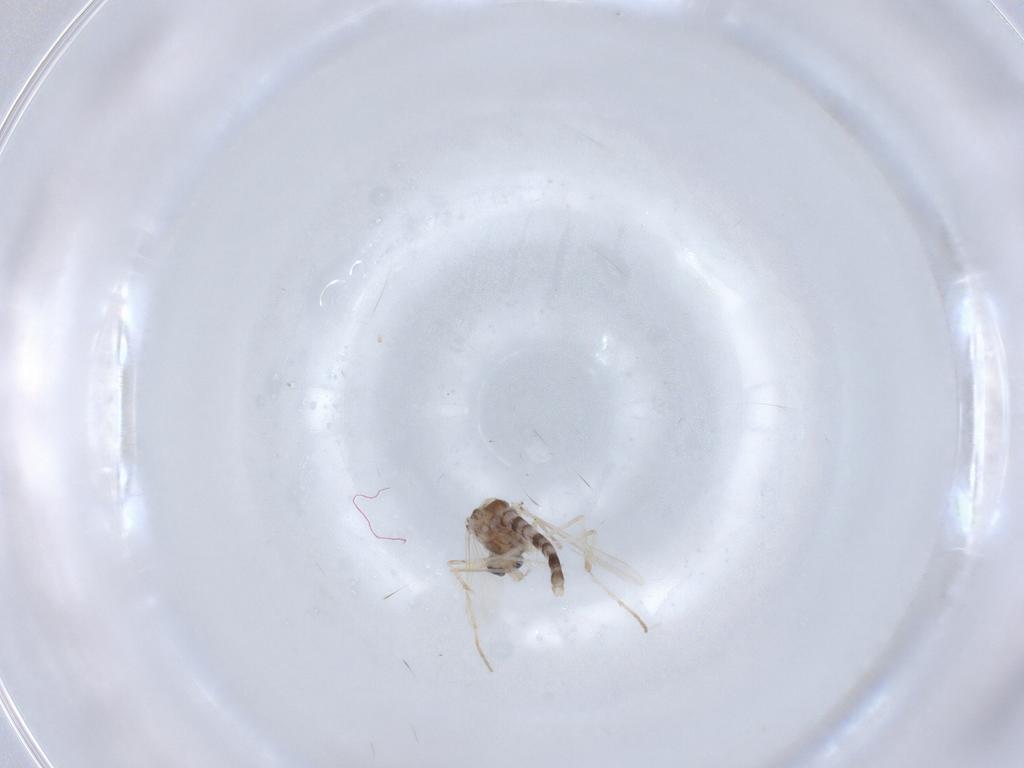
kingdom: Animalia
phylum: Arthropoda
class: Insecta
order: Diptera
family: Chironomidae
